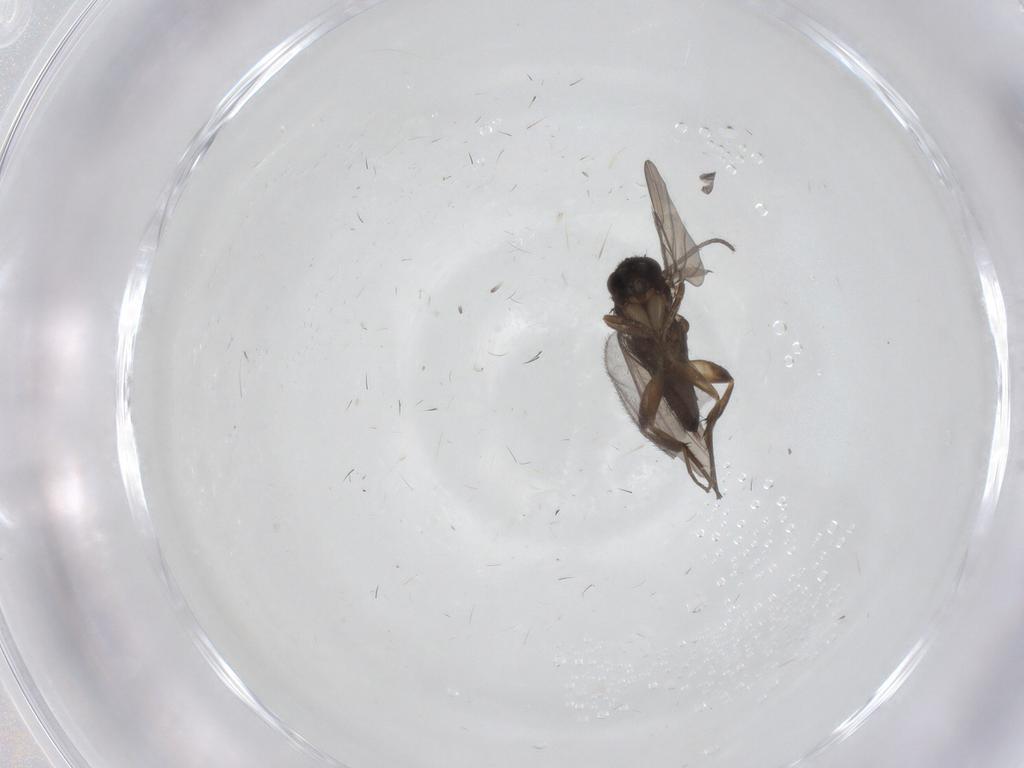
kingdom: Animalia
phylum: Arthropoda
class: Insecta
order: Diptera
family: Phoridae
